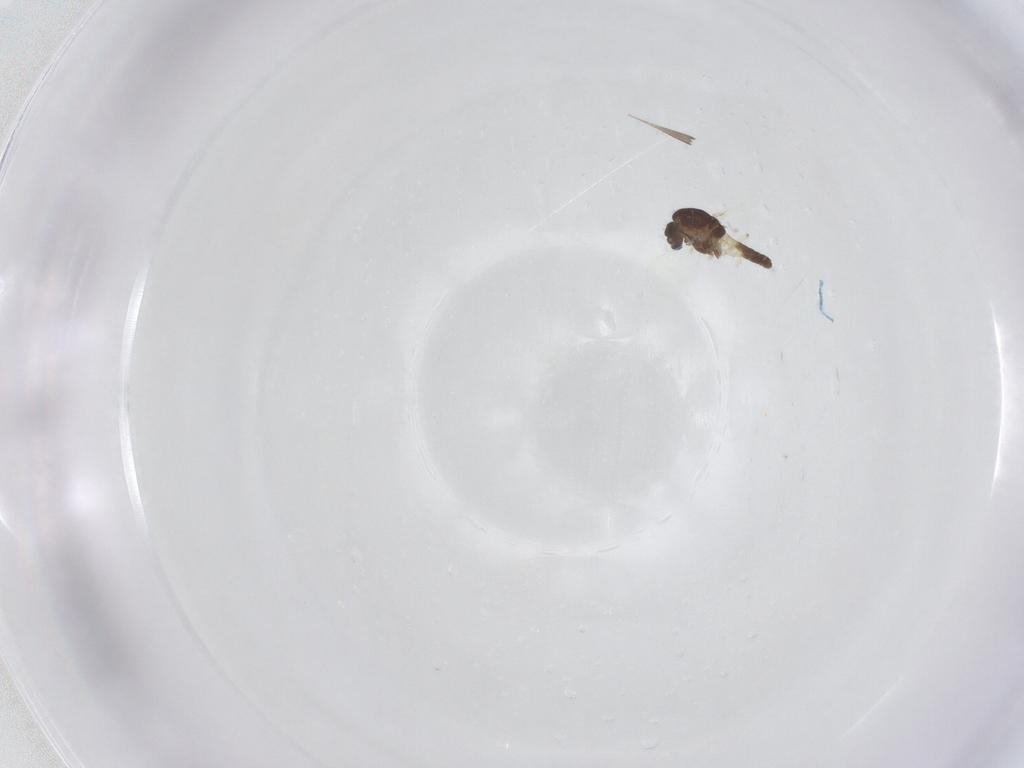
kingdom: Animalia
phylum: Arthropoda
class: Insecta
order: Diptera
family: Chironomidae
